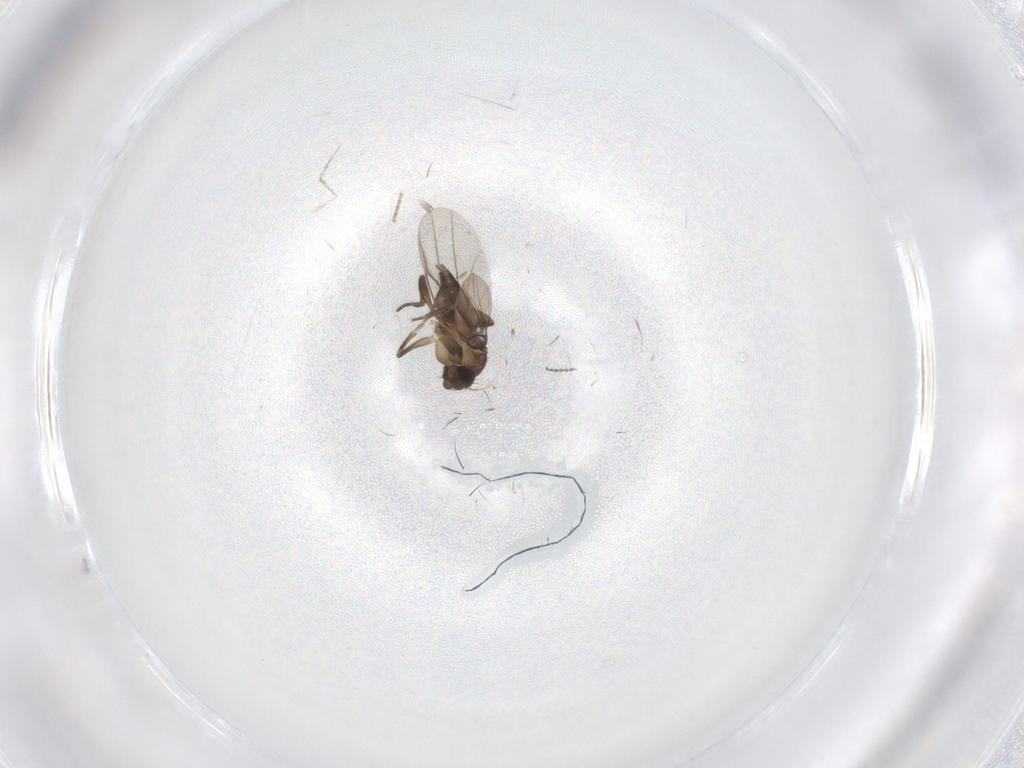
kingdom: Animalia
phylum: Arthropoda
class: Insecta
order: Diptera
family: Chironomidae
